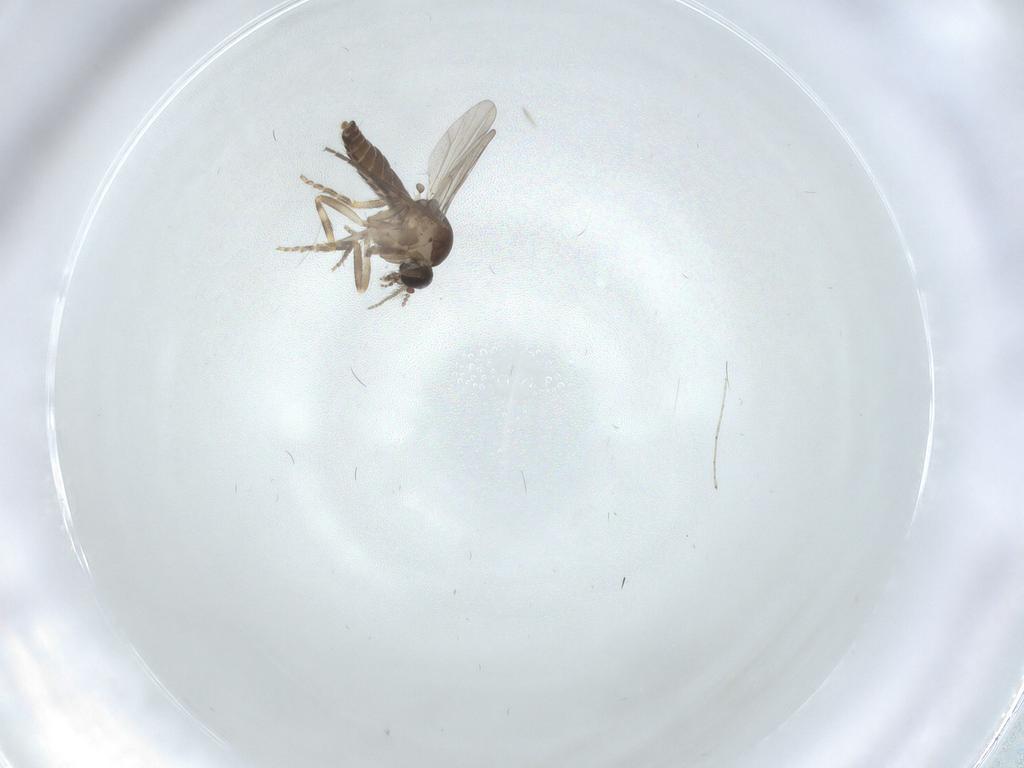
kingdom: Animalia
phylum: Arthropoda
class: Insecta
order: Diptera
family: Ceratopogonidae
